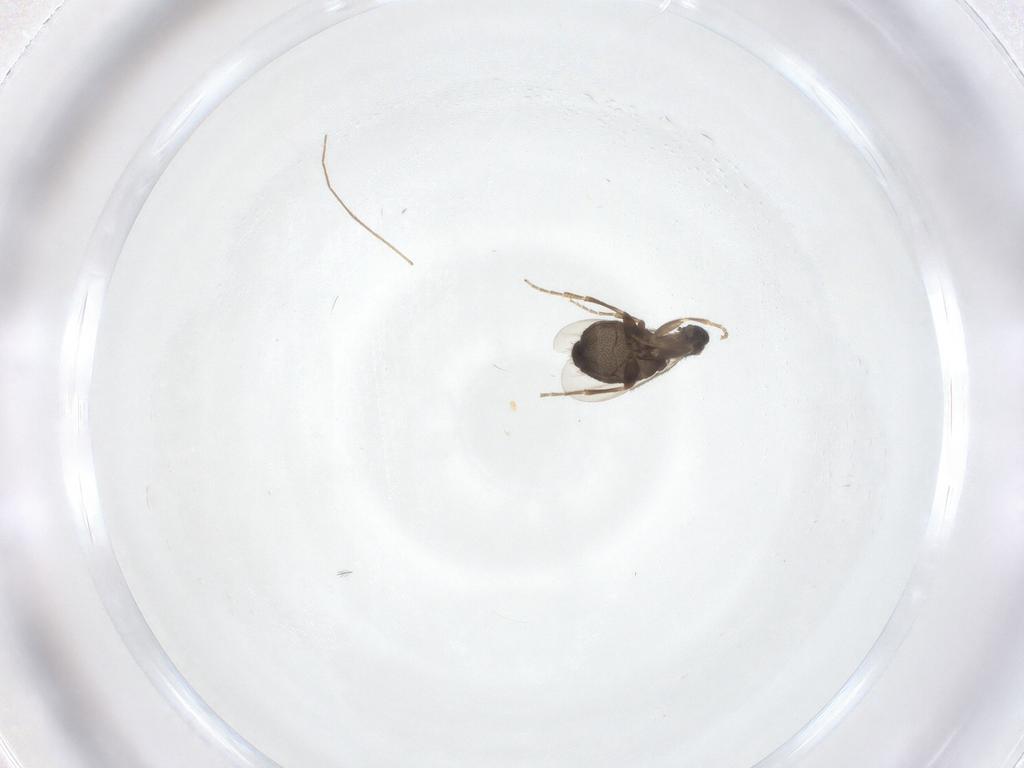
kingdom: Animalia
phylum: Arthropoda
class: Insecta
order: Diptera
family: Phoridae
